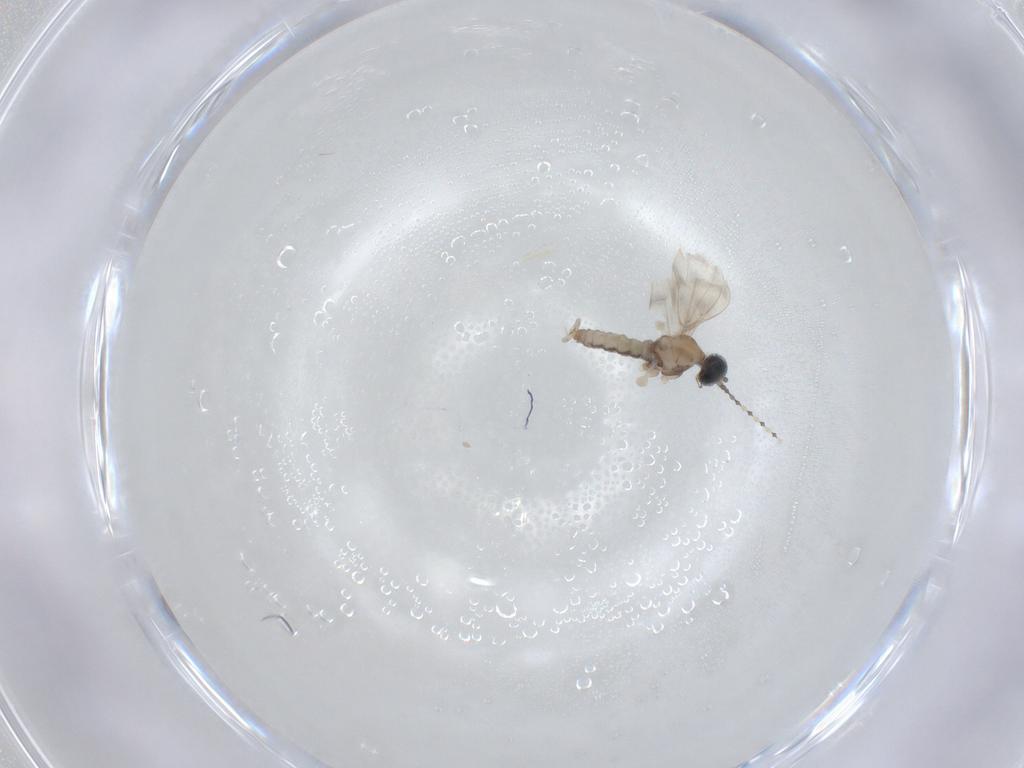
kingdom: Animalia
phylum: Arthropoda
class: Insecta
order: Diptera
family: Cecidomyiidae
